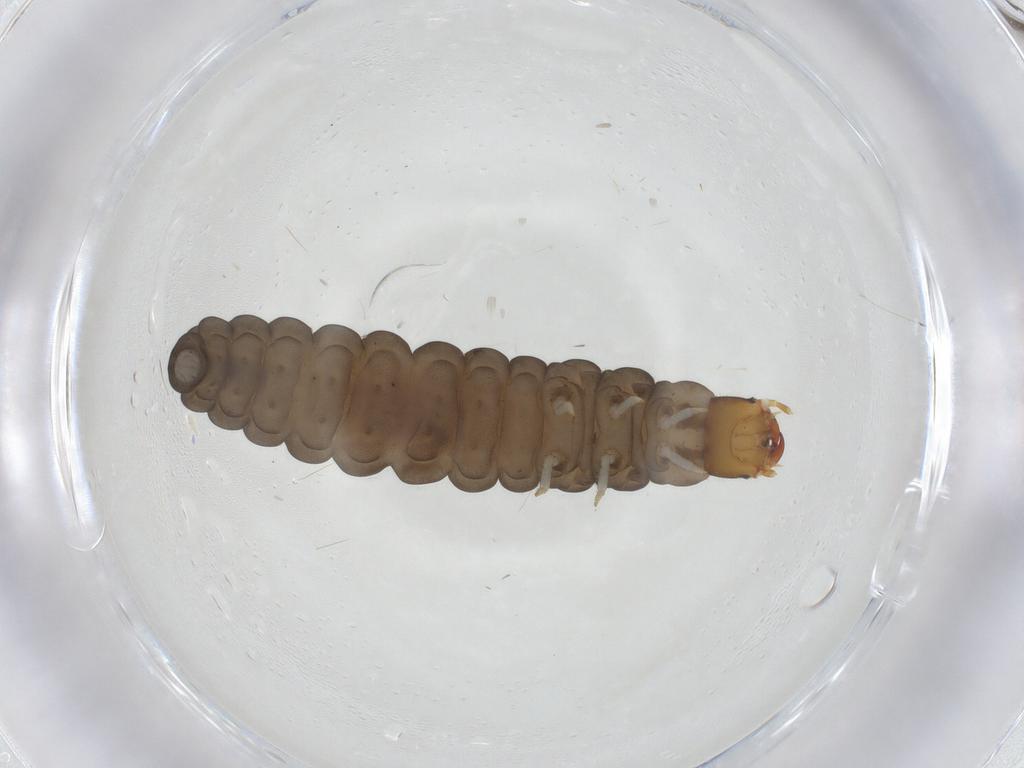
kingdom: Animalia
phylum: Arthropoda
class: Insecta
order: Coleoptera
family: Cantharidae
